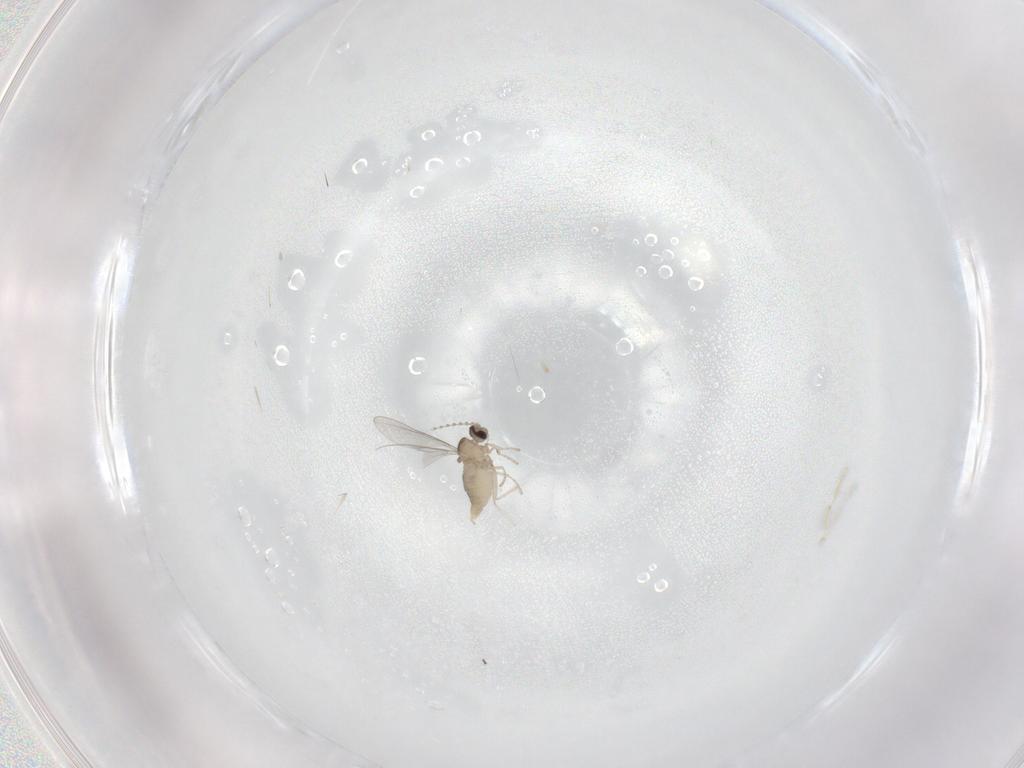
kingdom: Animalia
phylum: Arthropoda
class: Insecta
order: Diptera
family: Cecidomyiidae
